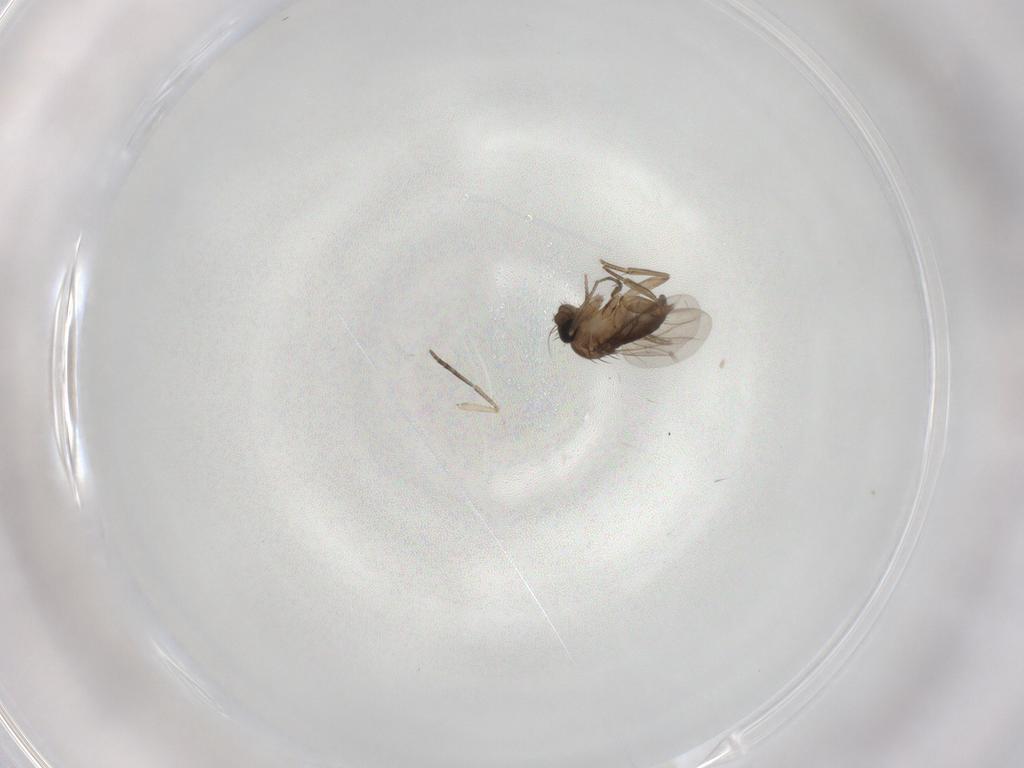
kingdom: Animalia
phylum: Arthropoda
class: Insecta
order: Diptera
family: Phoridae
